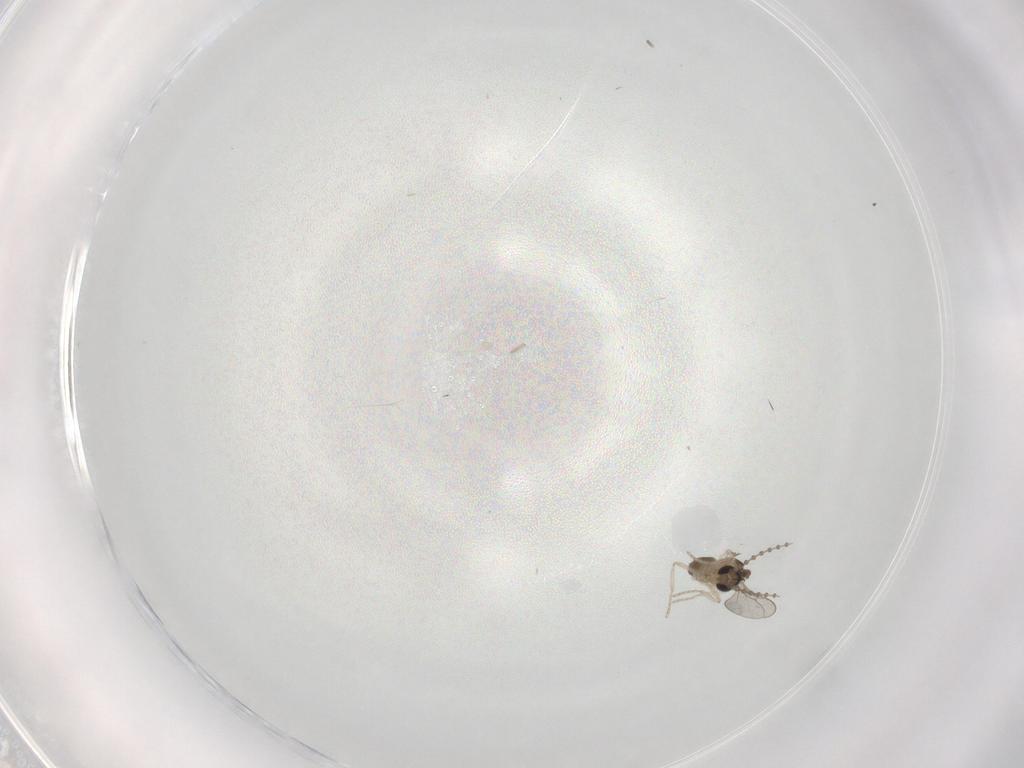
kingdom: Animalia
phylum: Arthropoda
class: Insecta
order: Diptera
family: Cecidomyiidae
